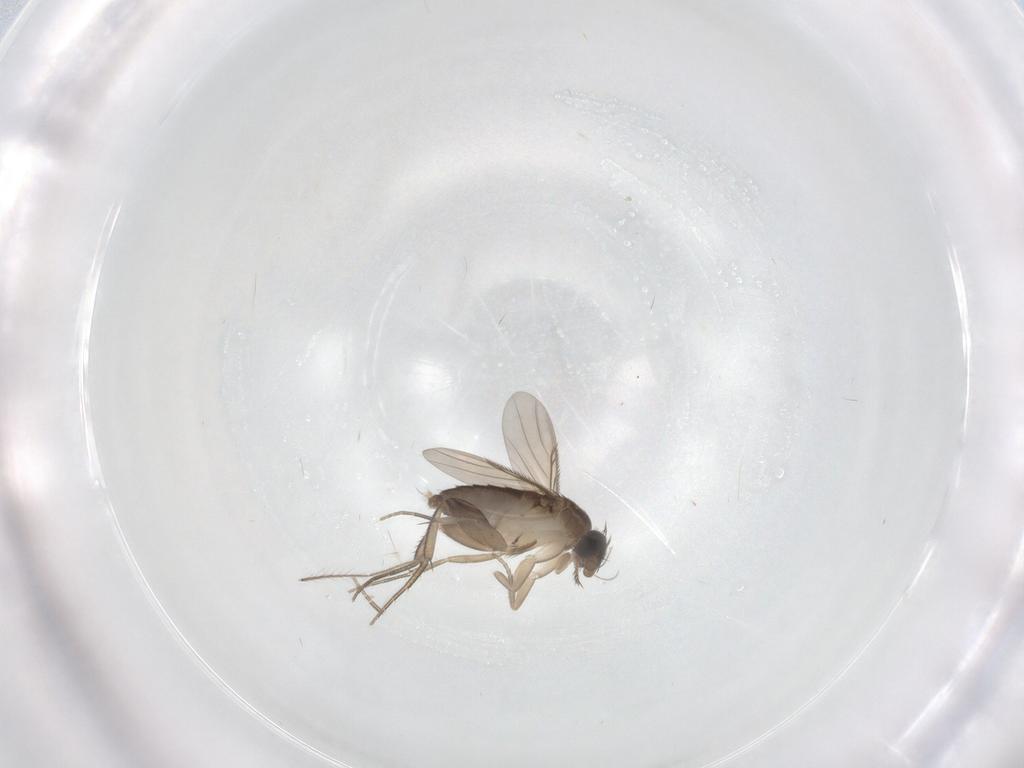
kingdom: Animalia
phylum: Arthropoda
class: Insecta
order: Diptera
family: Phoridae
